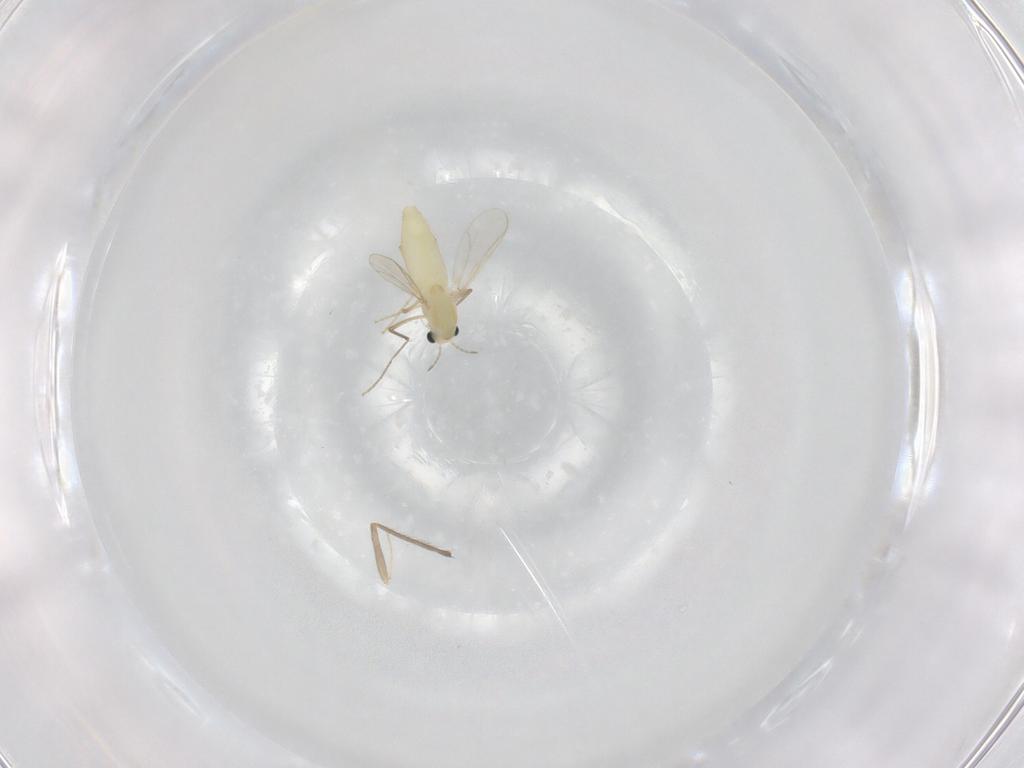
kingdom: Animalia
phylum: Arthropoda
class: Insecta
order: Diptera
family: Chironomidae
